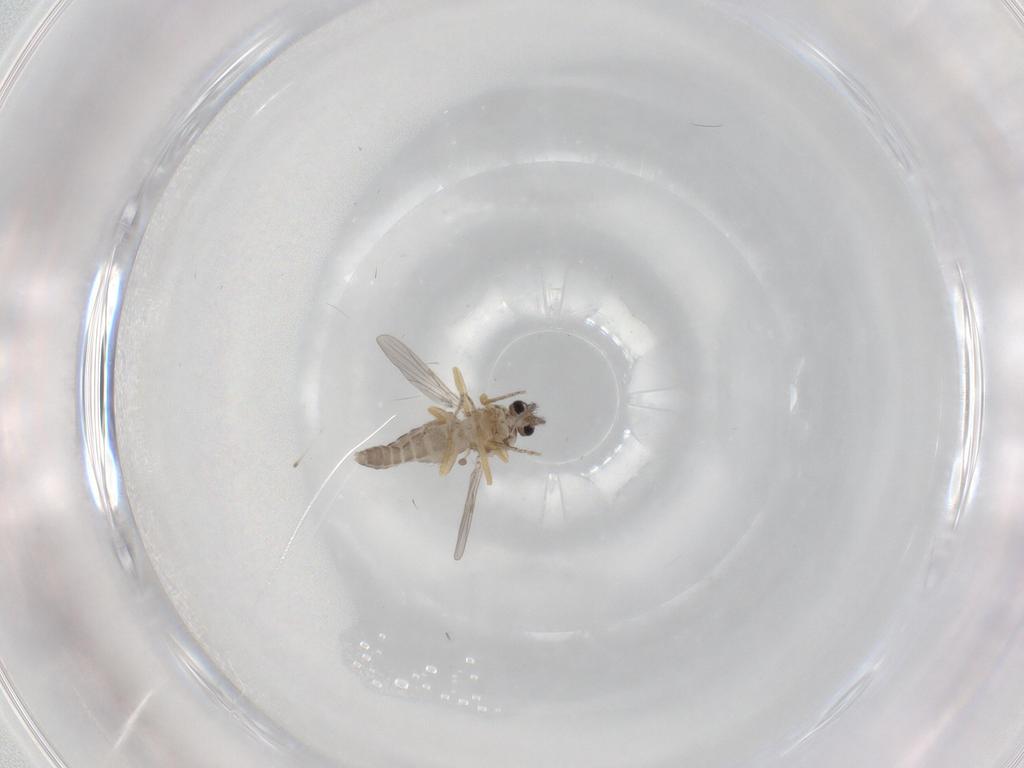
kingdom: Animalia
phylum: Arthropoda
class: Insecta
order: Diptera
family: Ceratopogonidae
